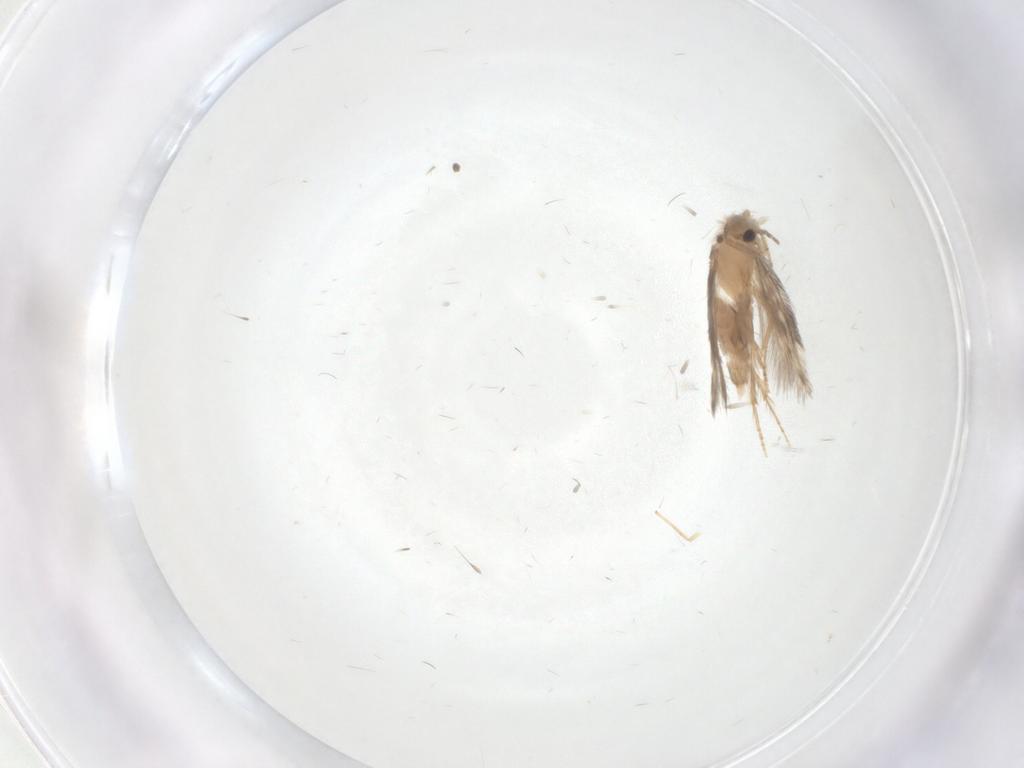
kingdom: Animalia
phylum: Arthropoda
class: Insecta
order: Diptera
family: Chironomidae
